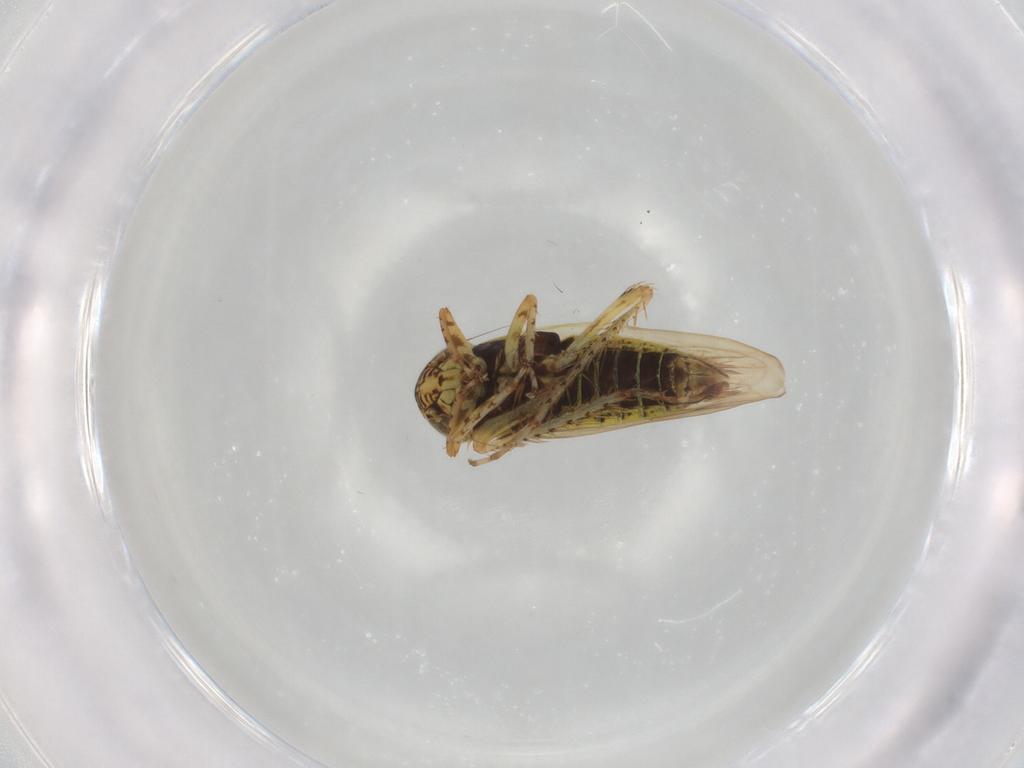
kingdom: Animalia
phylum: Arthropoda
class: Insecta
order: Hemiptera
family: Cicadellidae
